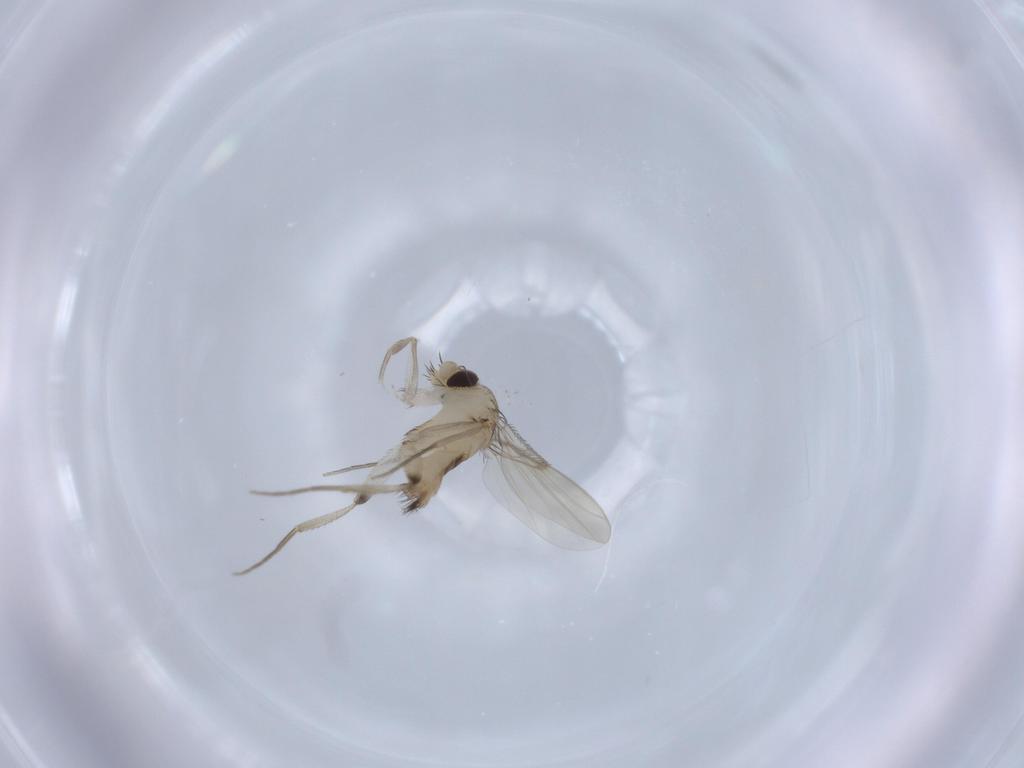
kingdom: Animalia
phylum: Arthropoda
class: Insecta
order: Diptera
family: Phoridae
